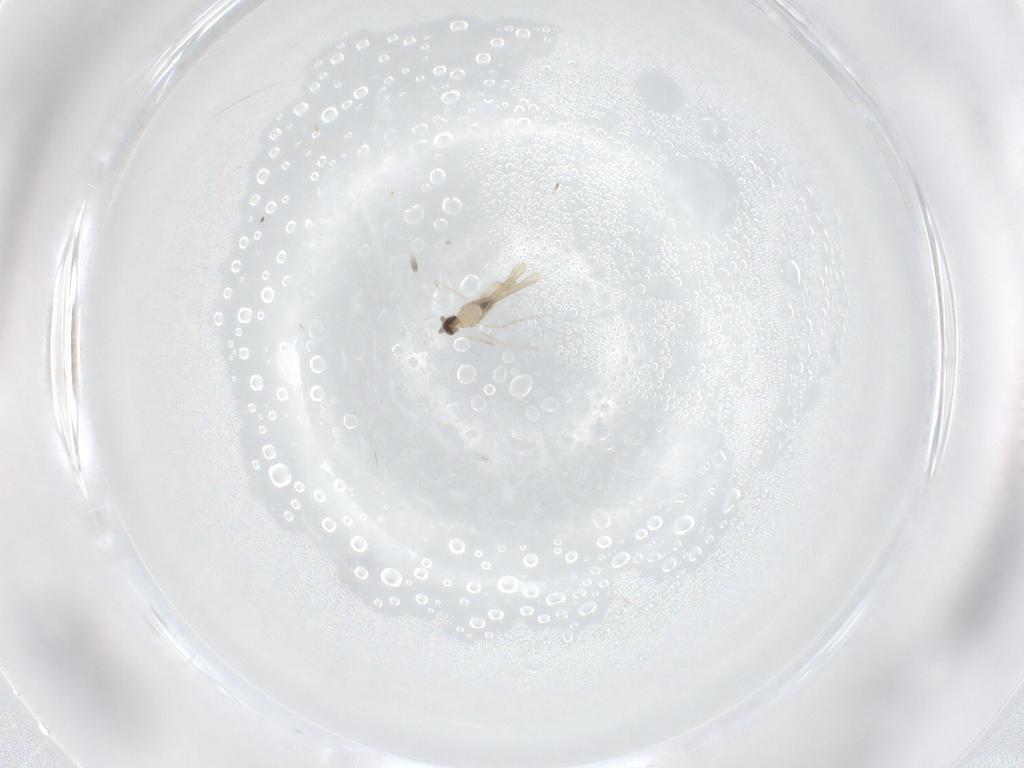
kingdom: Animalia
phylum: Arthropoda
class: Insecta
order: Diptera
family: Cecidomyiidae
